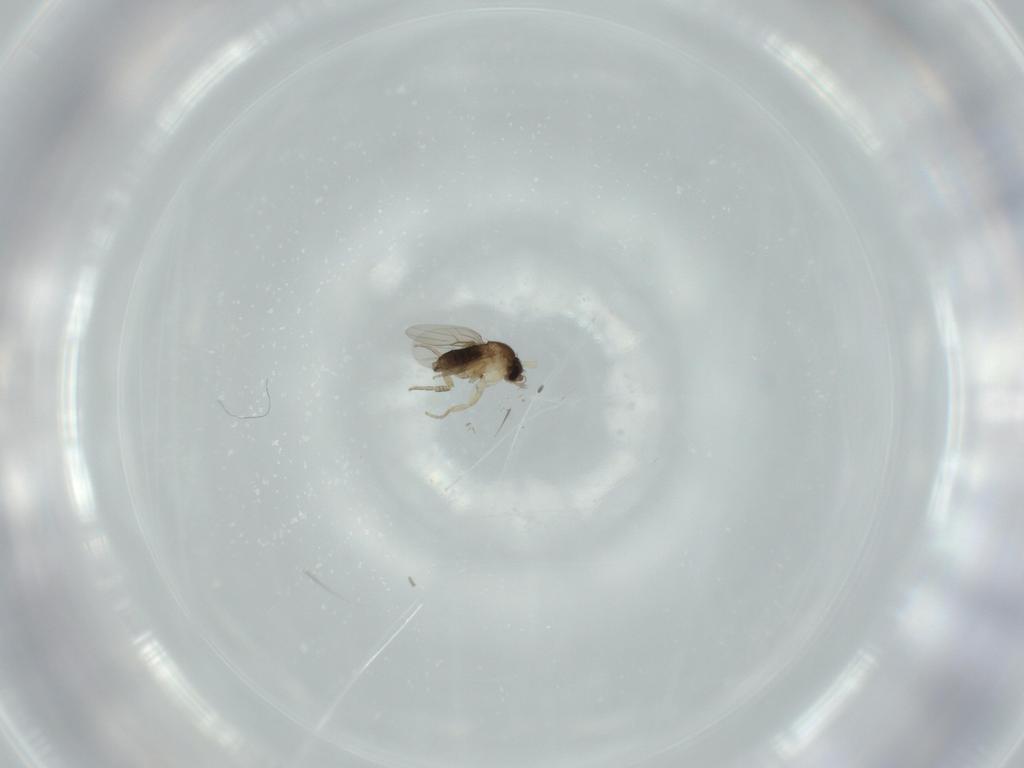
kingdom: Animalia
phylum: Arthropoda
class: Insecta
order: Diptera
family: Phoridae
